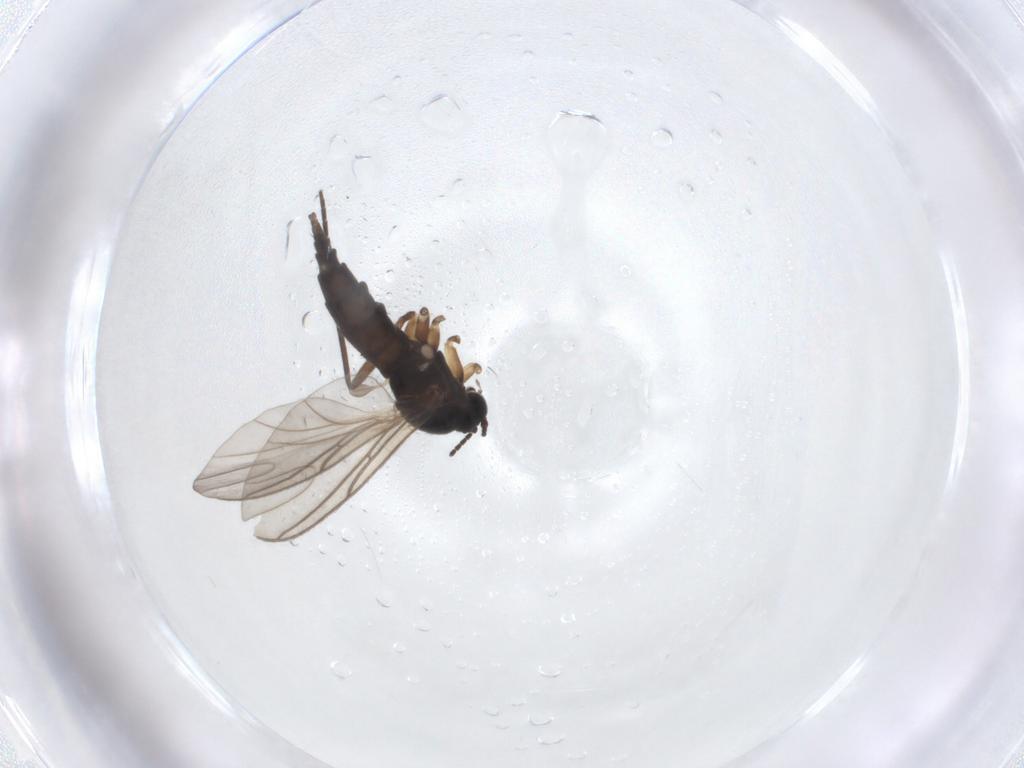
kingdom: Animalia
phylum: Arthropoda
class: Insecta
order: Diptera
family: Sciaridae
